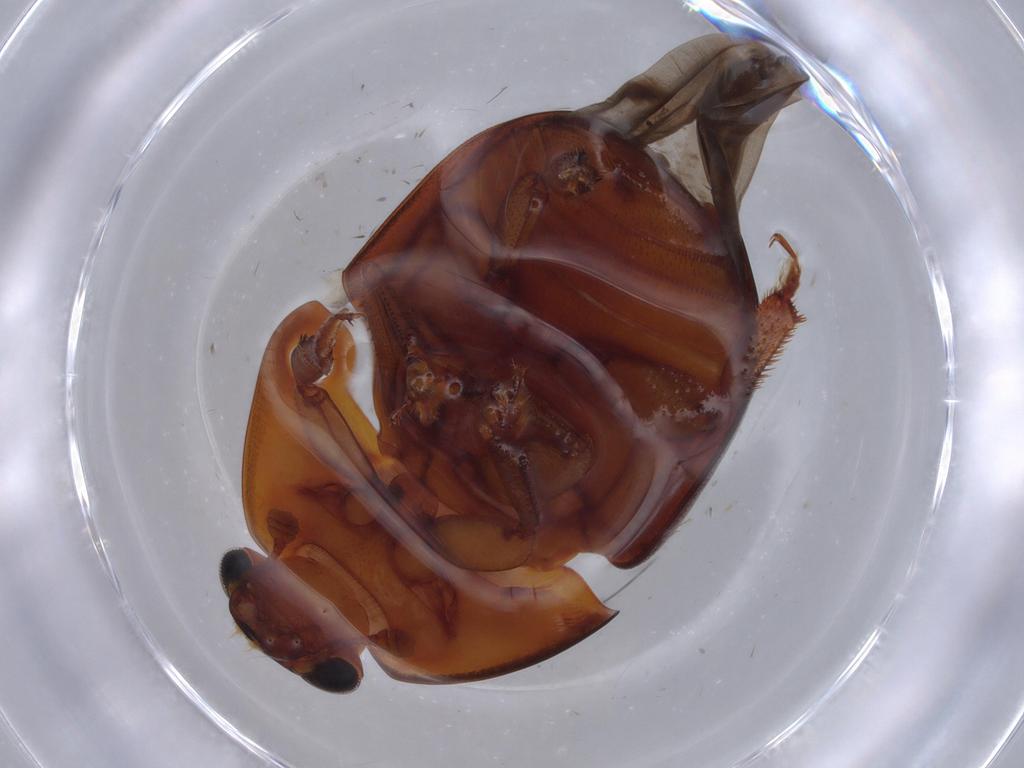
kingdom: Animalia
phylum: Arthropoda
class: Insecta
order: Coleoptera
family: Nitidulidae
